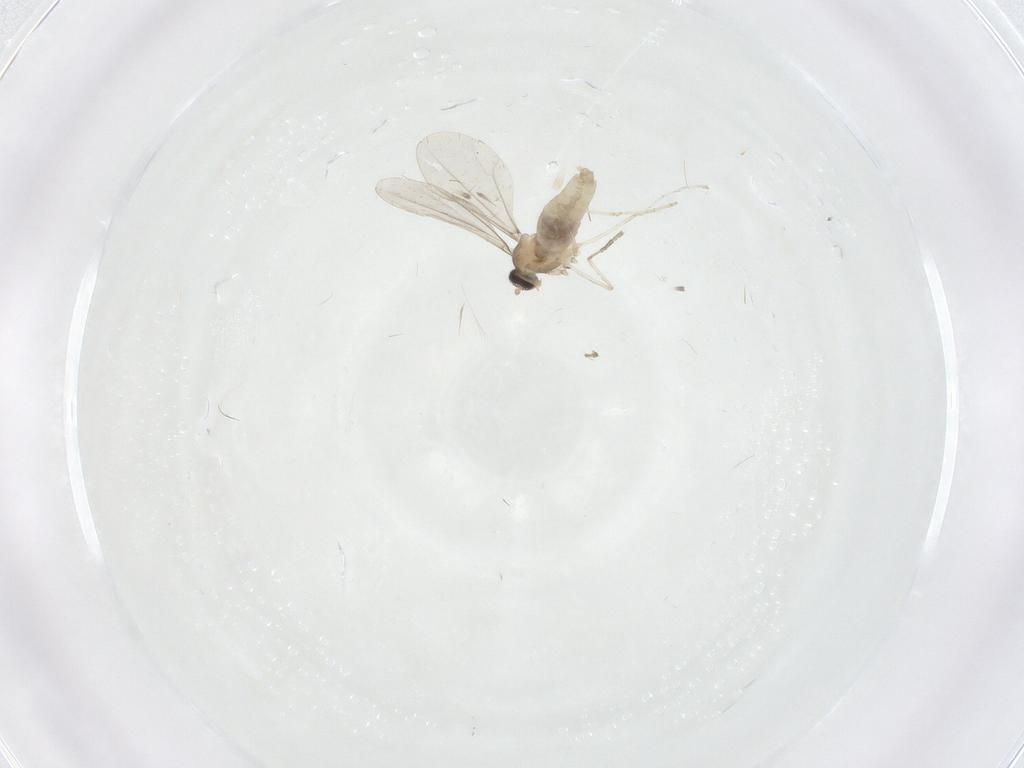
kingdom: Animalia
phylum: Arthropoda
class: Insecta
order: Diptera
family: Cecidomyiidae
